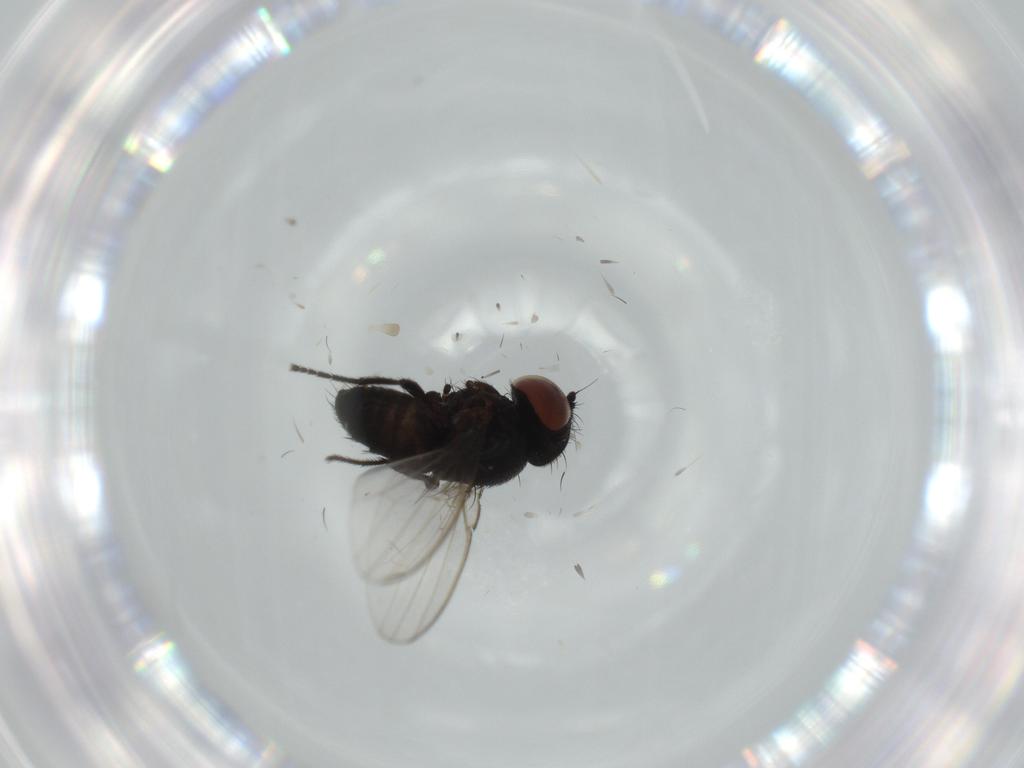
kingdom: Animalia
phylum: Arthropoda
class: Insecta
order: Diptera
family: Milichiidae
